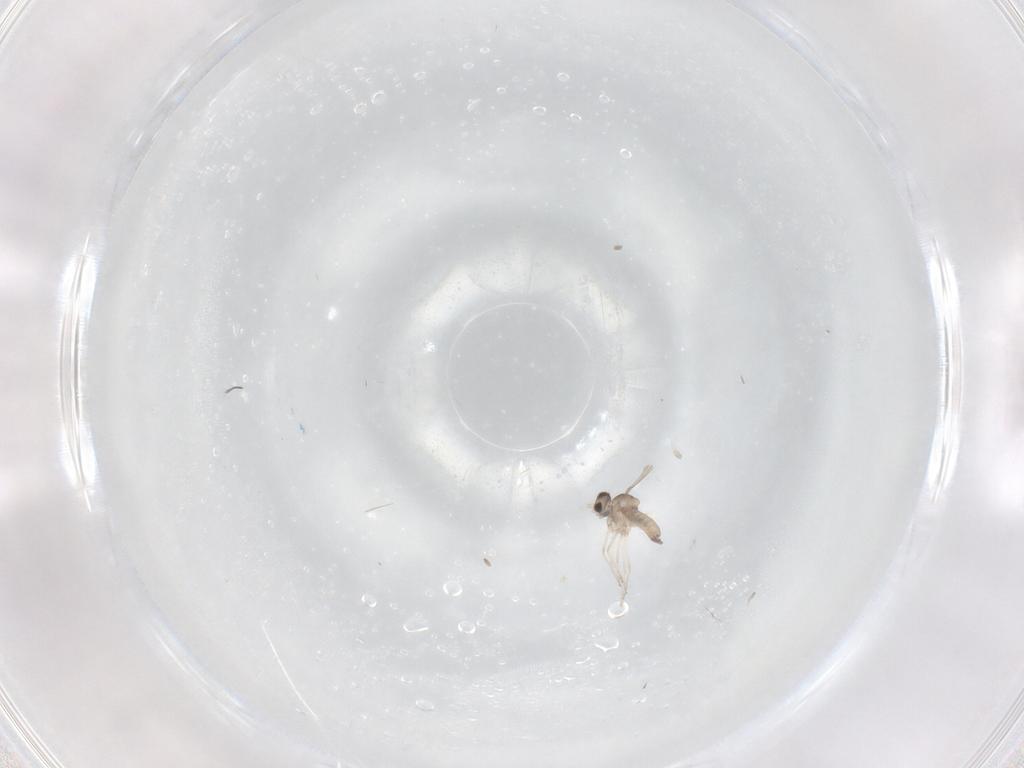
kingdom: Animalia
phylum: Arthropoda
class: Insecta
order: Diptera
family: Cecidomyiidae
